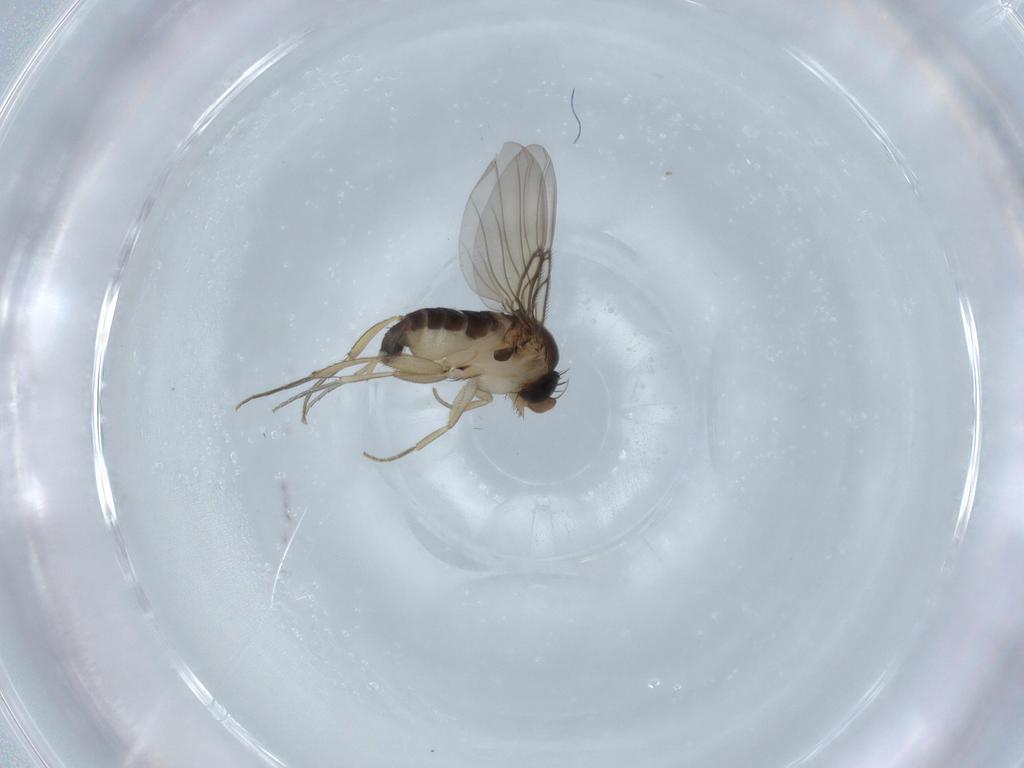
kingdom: Animalia
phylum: Arthropoda
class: Insecta
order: Diptera
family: Phoridae
